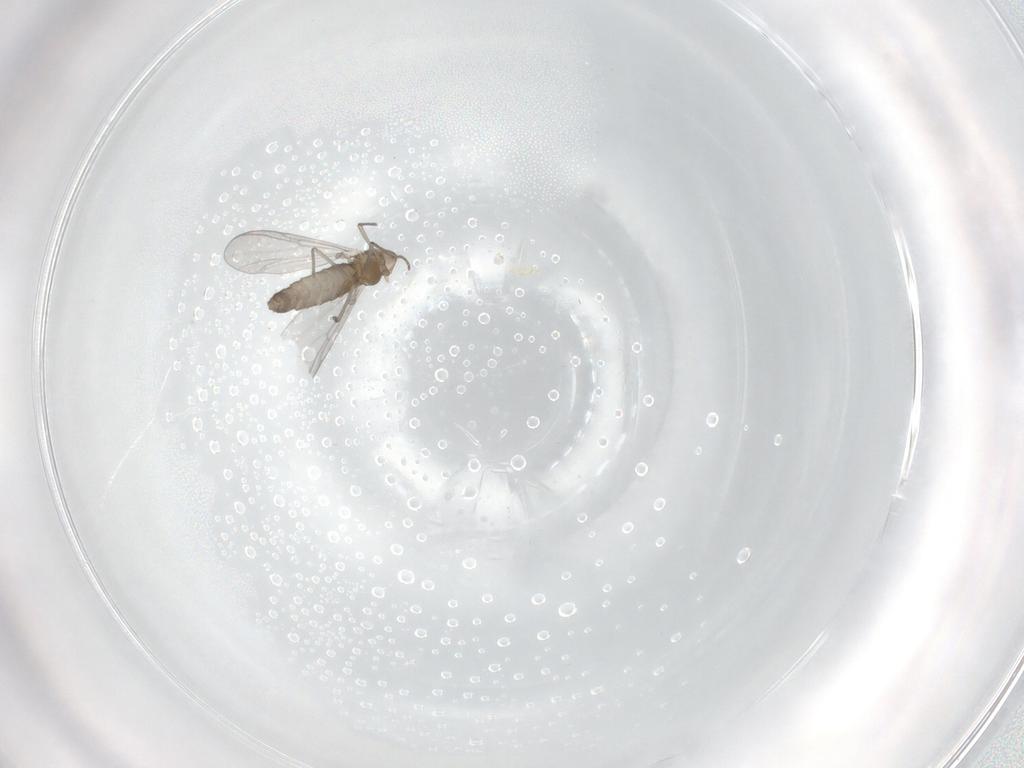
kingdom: Animalia
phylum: Arthropoda
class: Insecta
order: Diptera
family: Chironomidae
